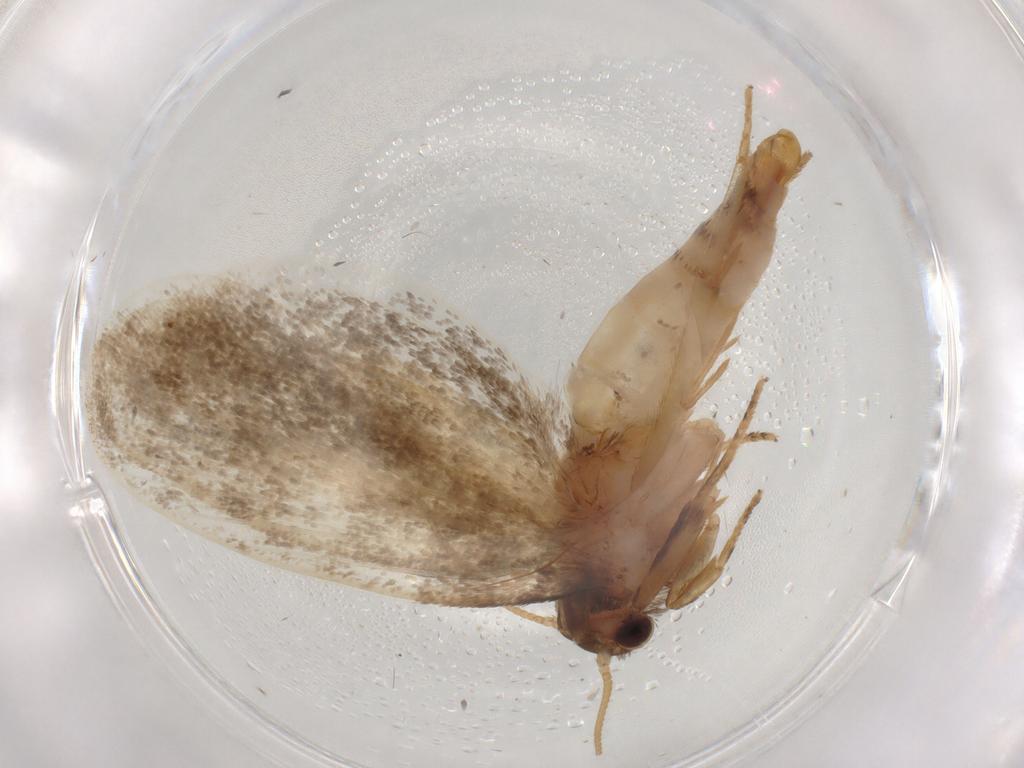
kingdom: Animalia
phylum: Arthropoda
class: Insecta
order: Lepidoptera
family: Tineidae
